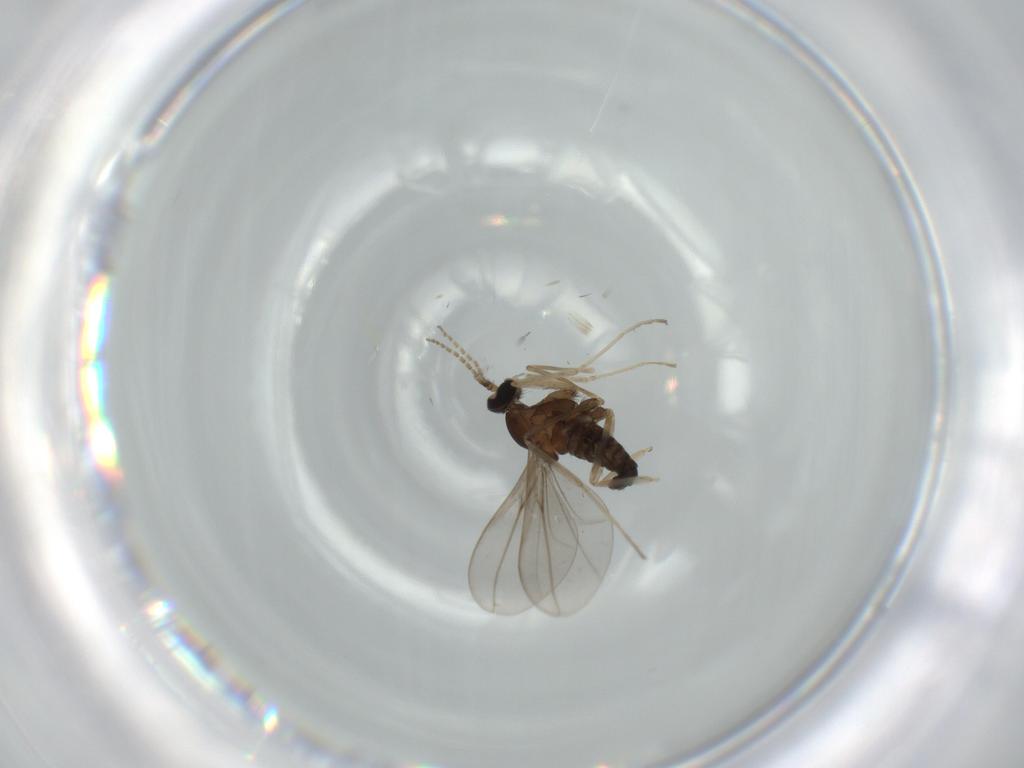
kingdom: Animalia
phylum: Arthropoda
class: Insecta
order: Diptera
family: Cecidomyiidae
